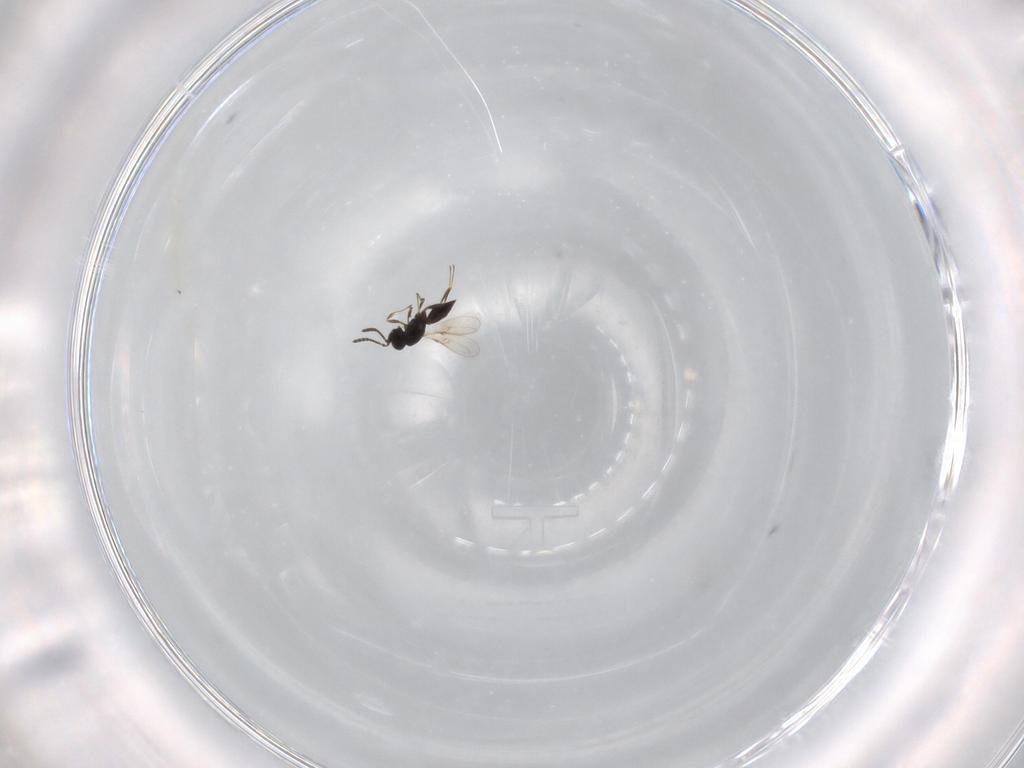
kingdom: Animalia
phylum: Arthropoda
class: Insecta
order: Hymenoptera
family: Scelionidae
